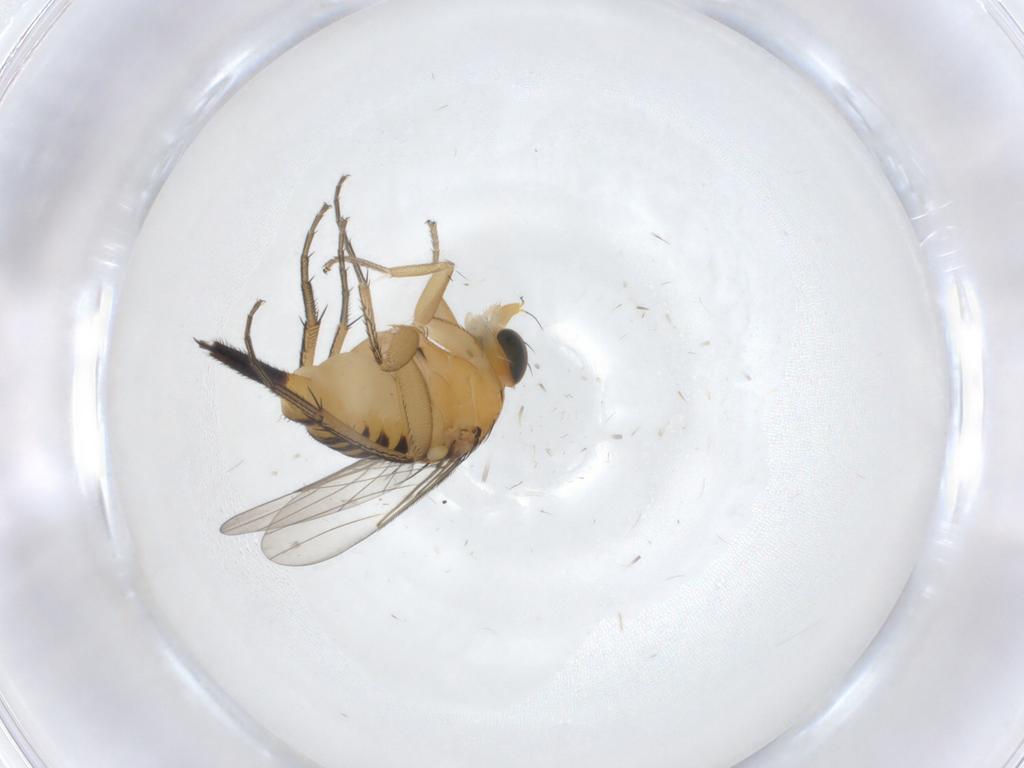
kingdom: Animalia
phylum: Arthropoda
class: Insecta
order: Diptera
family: Phoridae
